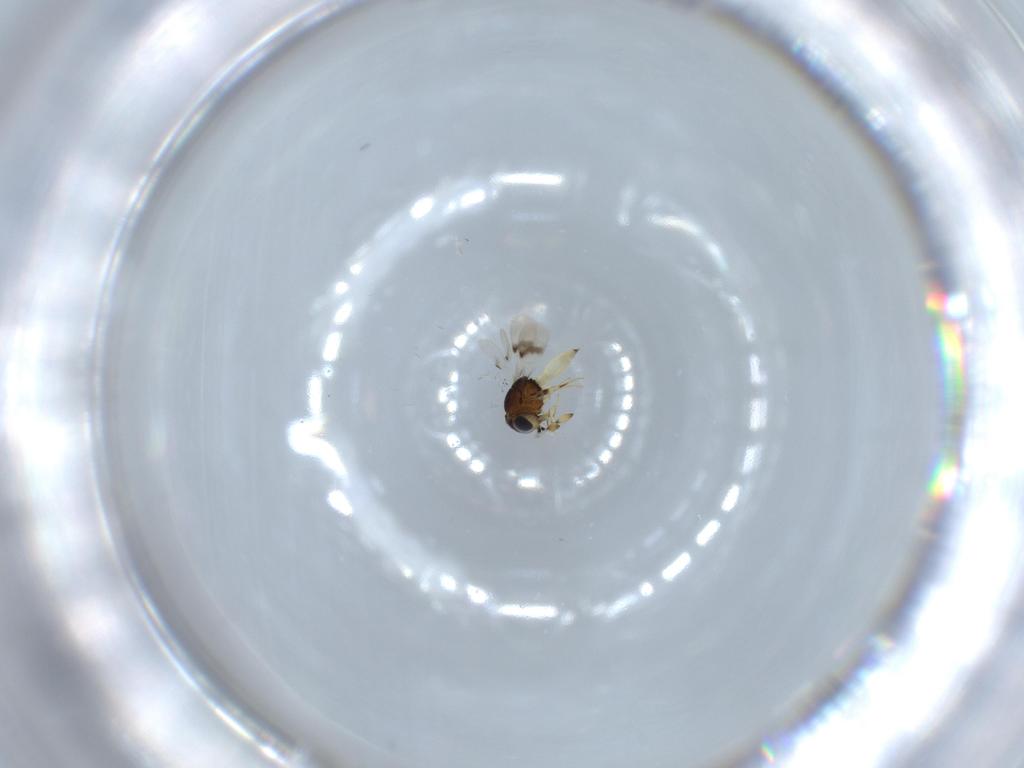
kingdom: Animalia
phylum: Arthropoda
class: Insecta
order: Hymenoptera
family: Scelionidae
